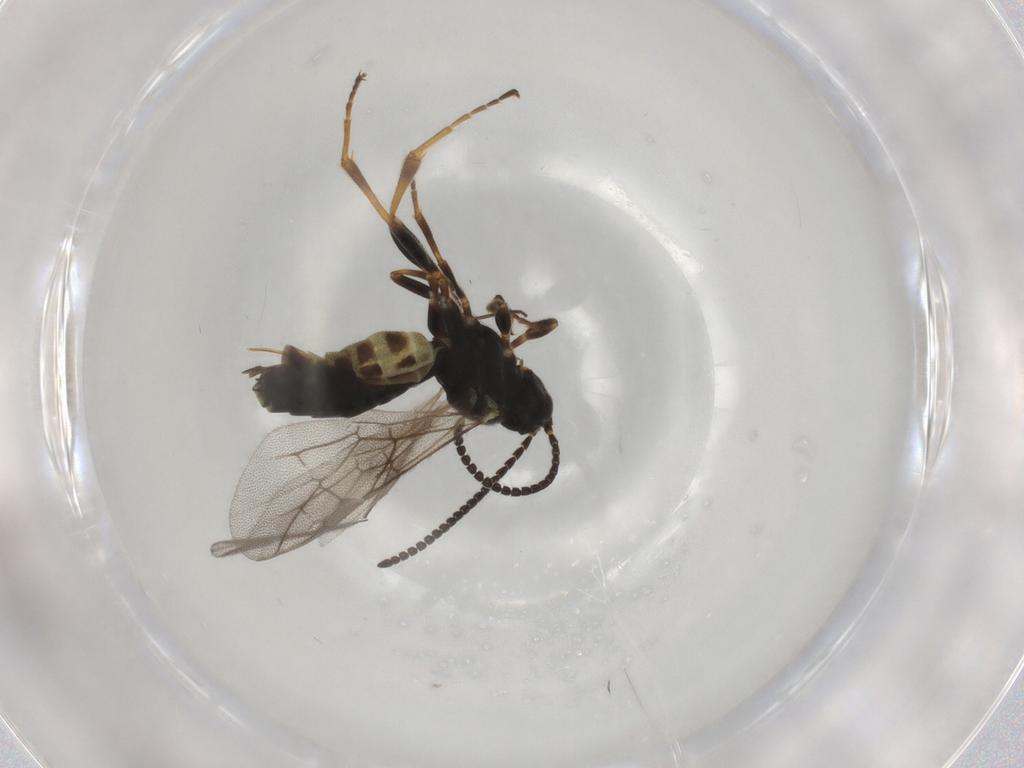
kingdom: Animalia
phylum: Arthropoda
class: Insecta
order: Hymenoptera
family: Ichneumonidae
